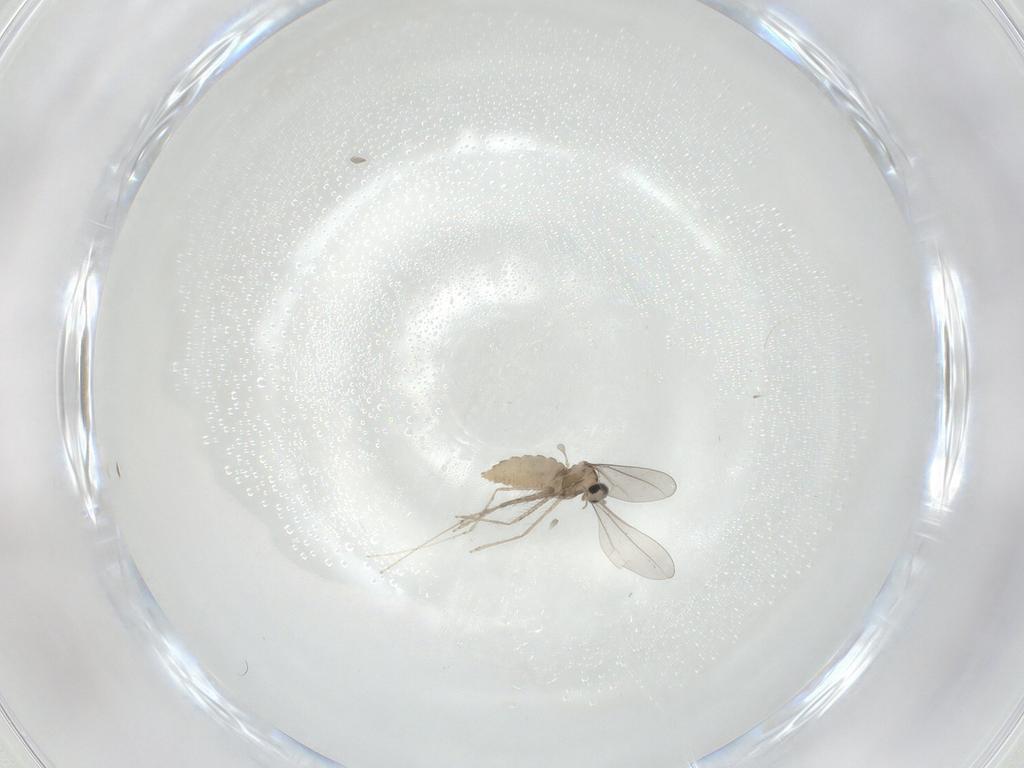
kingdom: Animalia
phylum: Arthropoda
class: Insecta
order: Diptera
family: Cecidomyiidae
